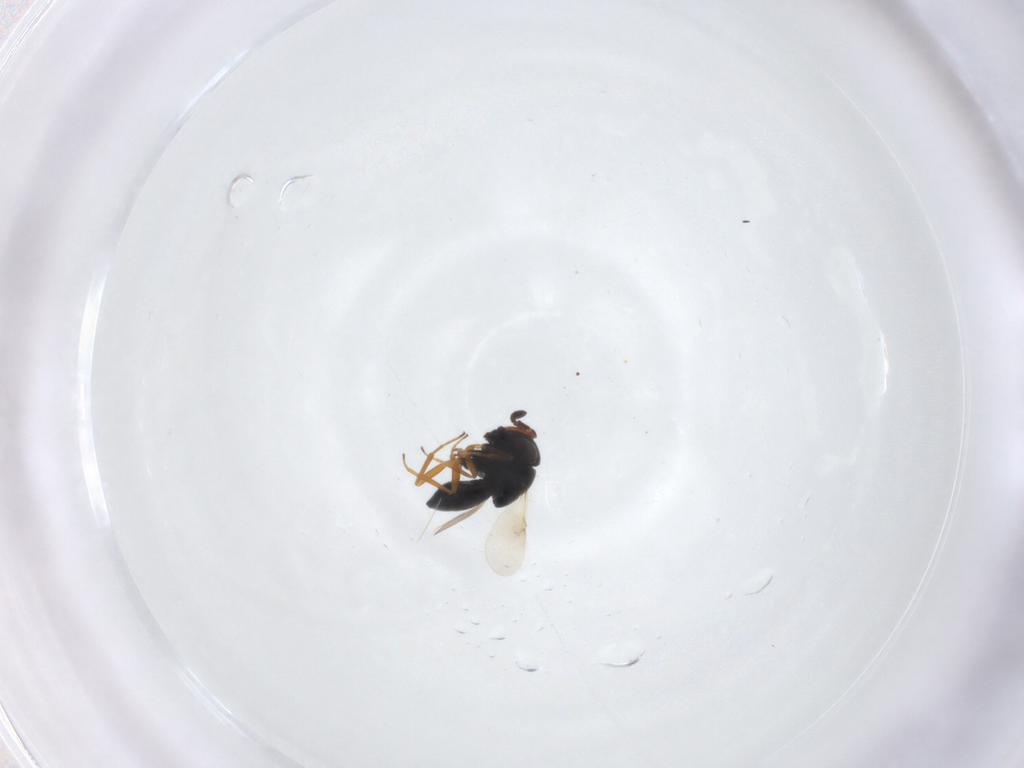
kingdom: Animalia
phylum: Arthropoda
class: Insecta
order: Hymenoptera
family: Scelionidae
